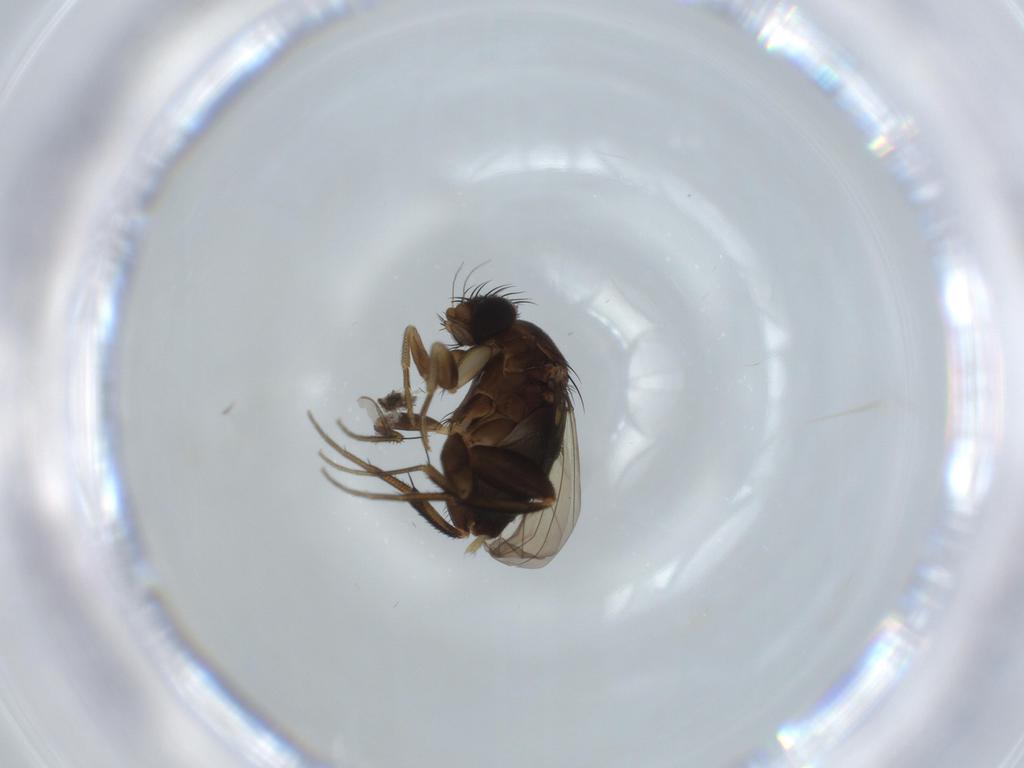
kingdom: Animalia
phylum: Arthropoda
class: Insecta
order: Diptera
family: Phoridae
